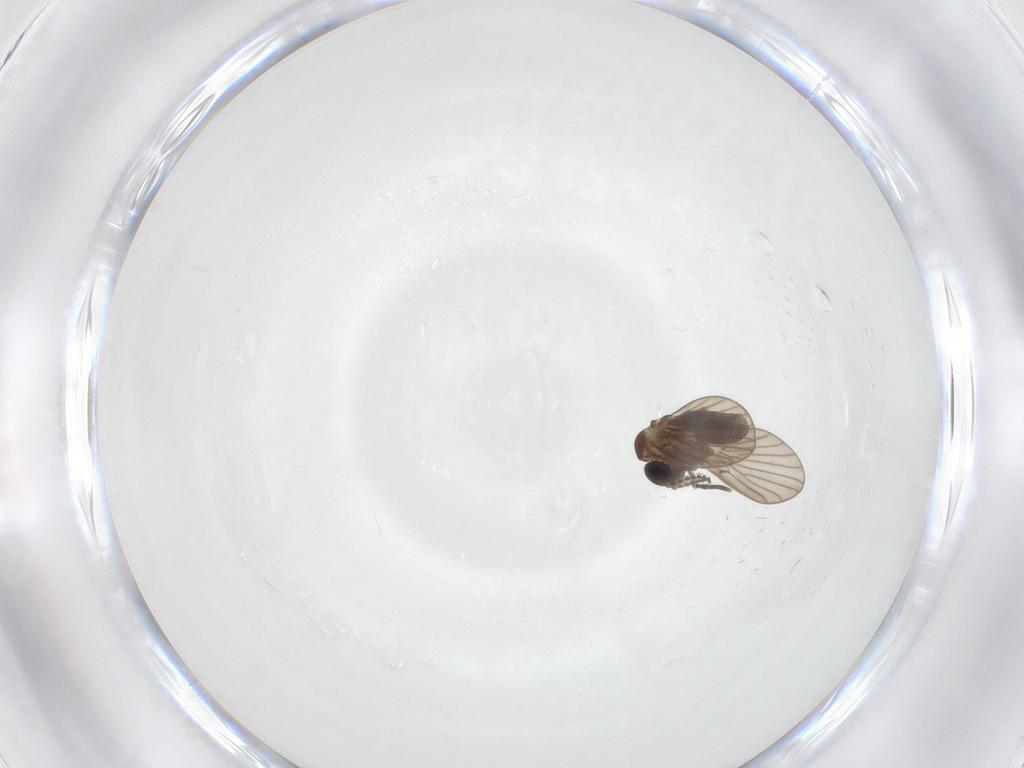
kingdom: Animalia
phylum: Arthropoda
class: Insecta
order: Diptera
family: Psychodidae
